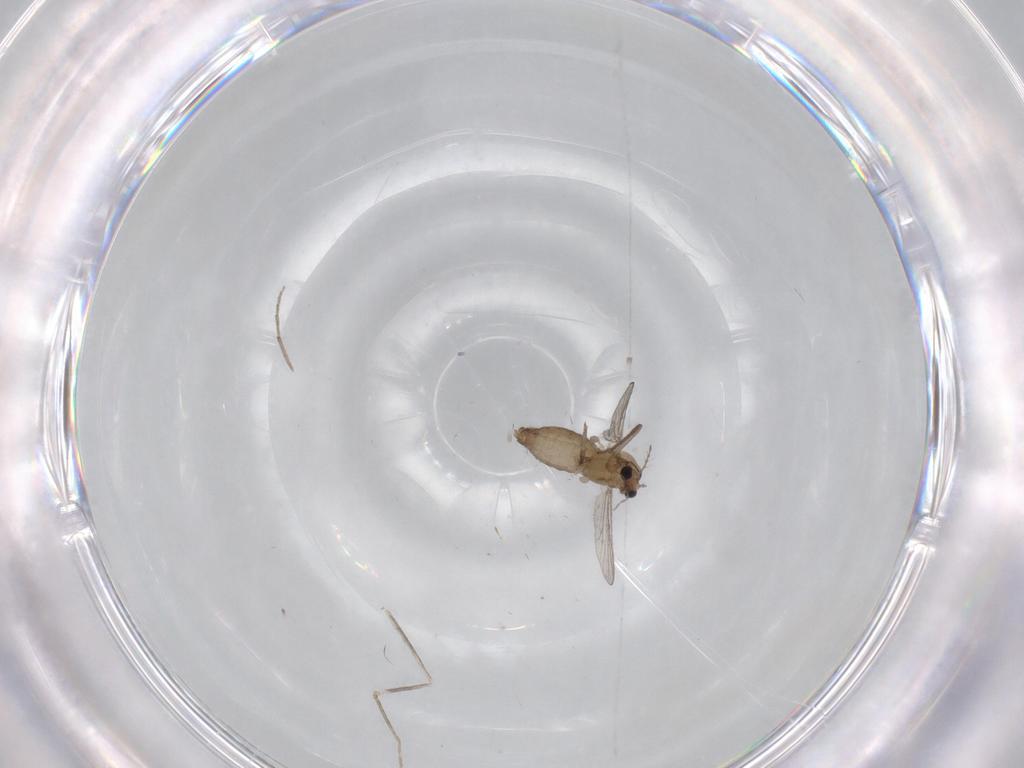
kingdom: Animalia
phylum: Arthropoda
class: Insecta
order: Diptera
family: Chironomidae
